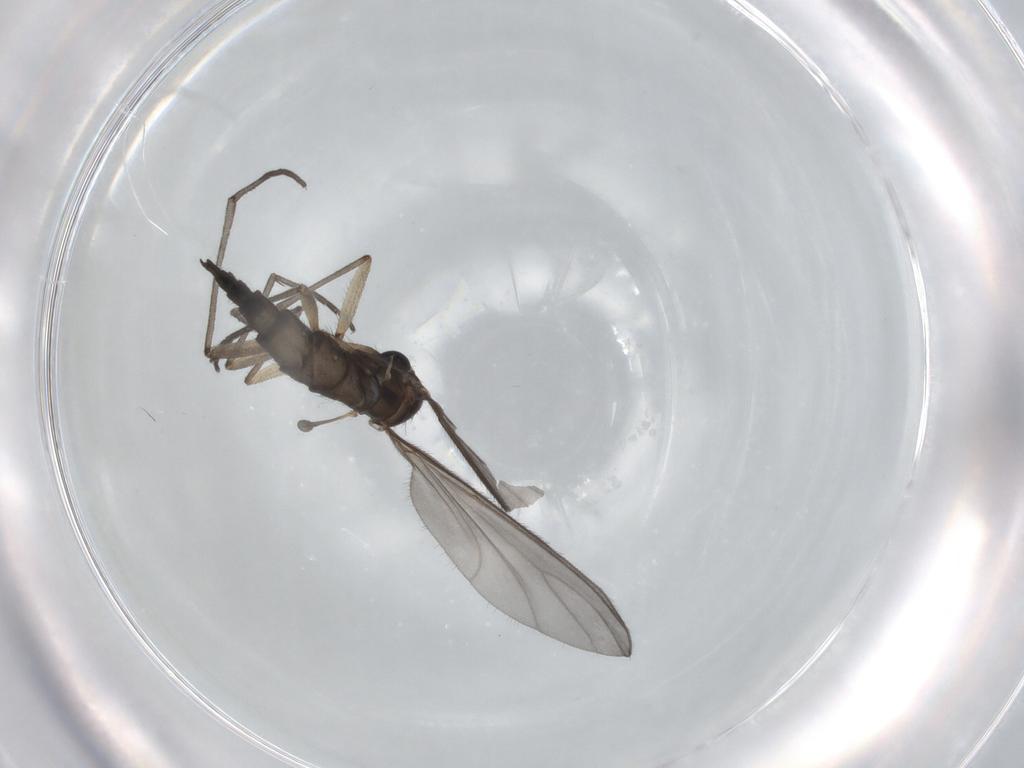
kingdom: Animalia
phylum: Arthropoda
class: Insecta
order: Diptera
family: Sciaridae
